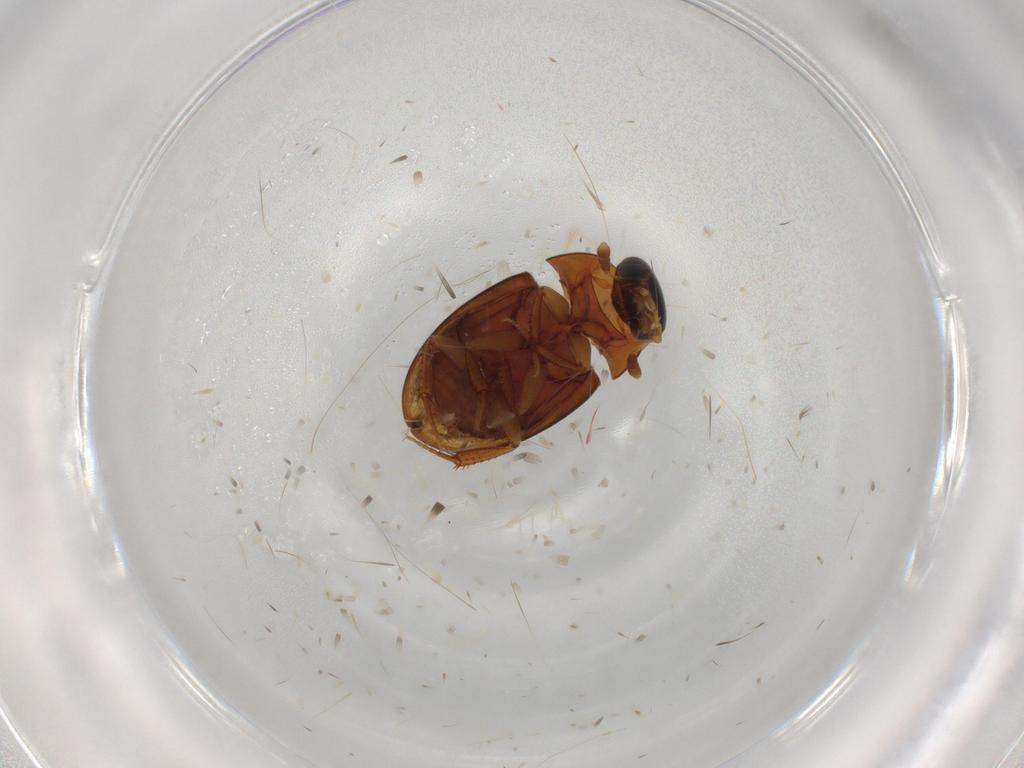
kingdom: Animalia
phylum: Arthropoda
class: Insecta
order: Coleoptera
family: Hydrophilidae
